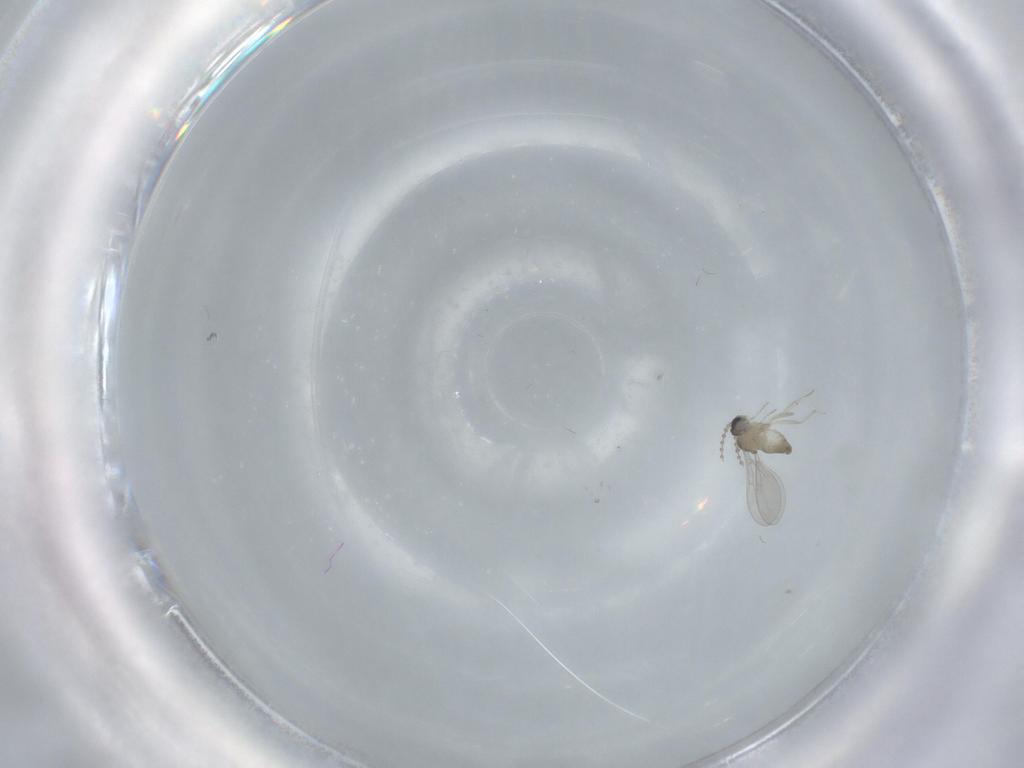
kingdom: Animalia
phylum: Arthropoda
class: Insecta
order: Diptera
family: Cecidomyiidae
